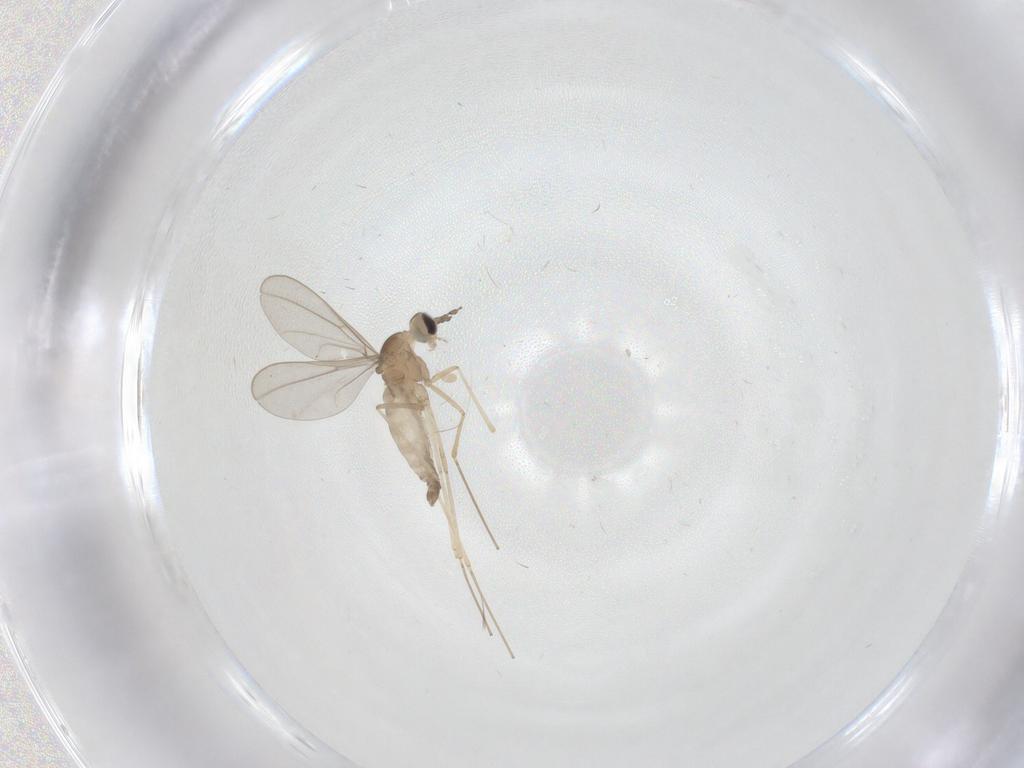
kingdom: Animalia
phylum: Arthropoda
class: Insecta
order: Diptera
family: Cecidomyiidae
